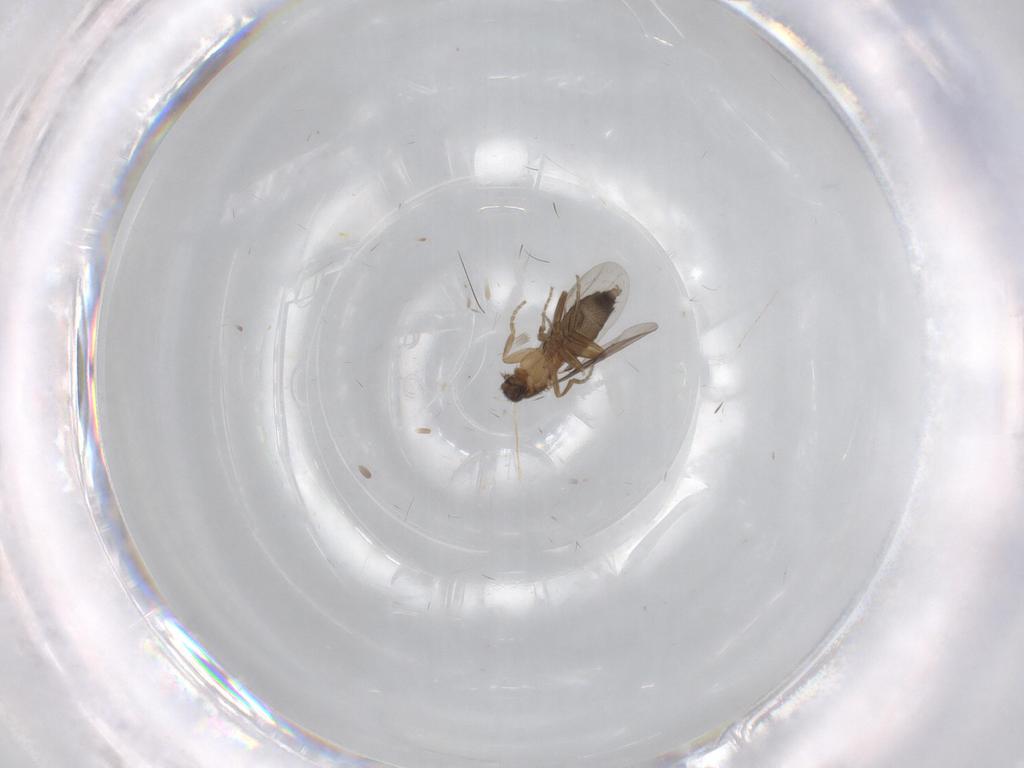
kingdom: Animalia
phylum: Arthropoda
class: Insecta
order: Diptera
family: Phoridae
